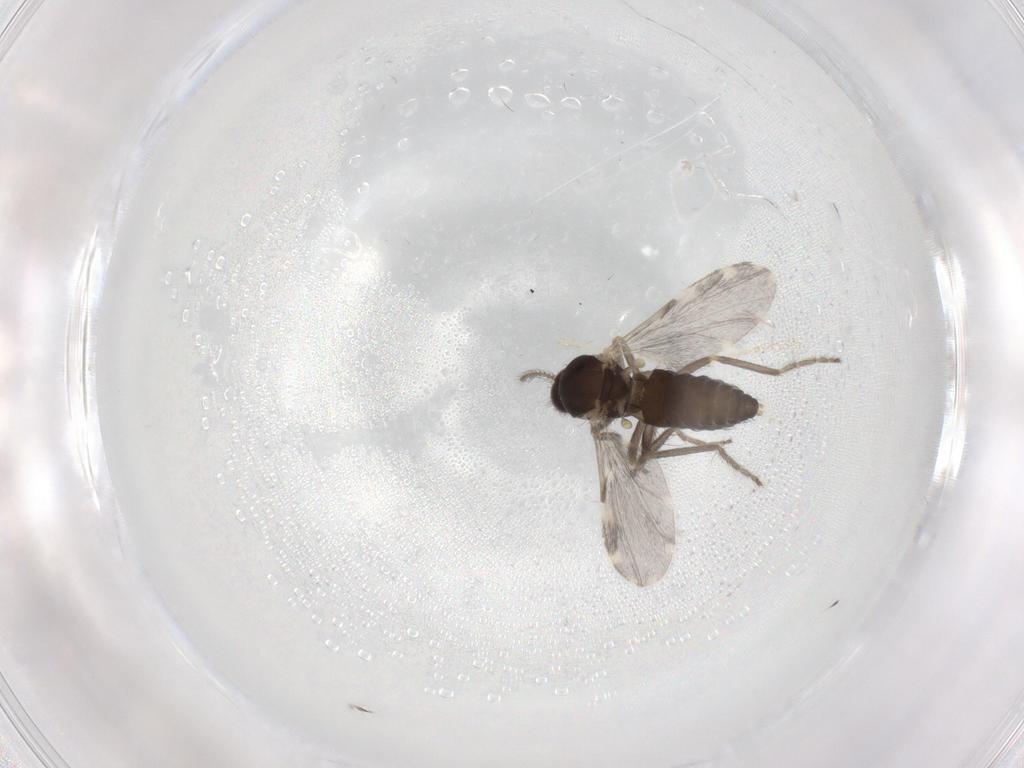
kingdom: Animalia
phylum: Arthropoda
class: Insecta
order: Diptera
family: Ceratopogonidae
